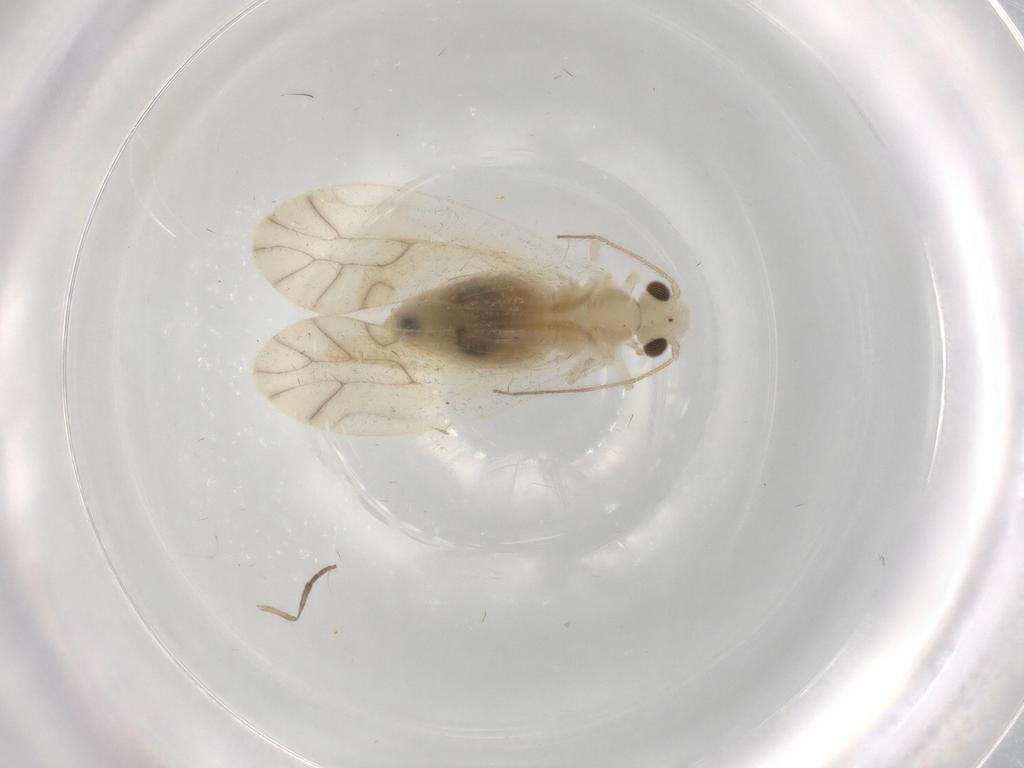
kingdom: Animalia
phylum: Arthropoda
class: Insecta
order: Psocodea
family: Caeciliusidae
